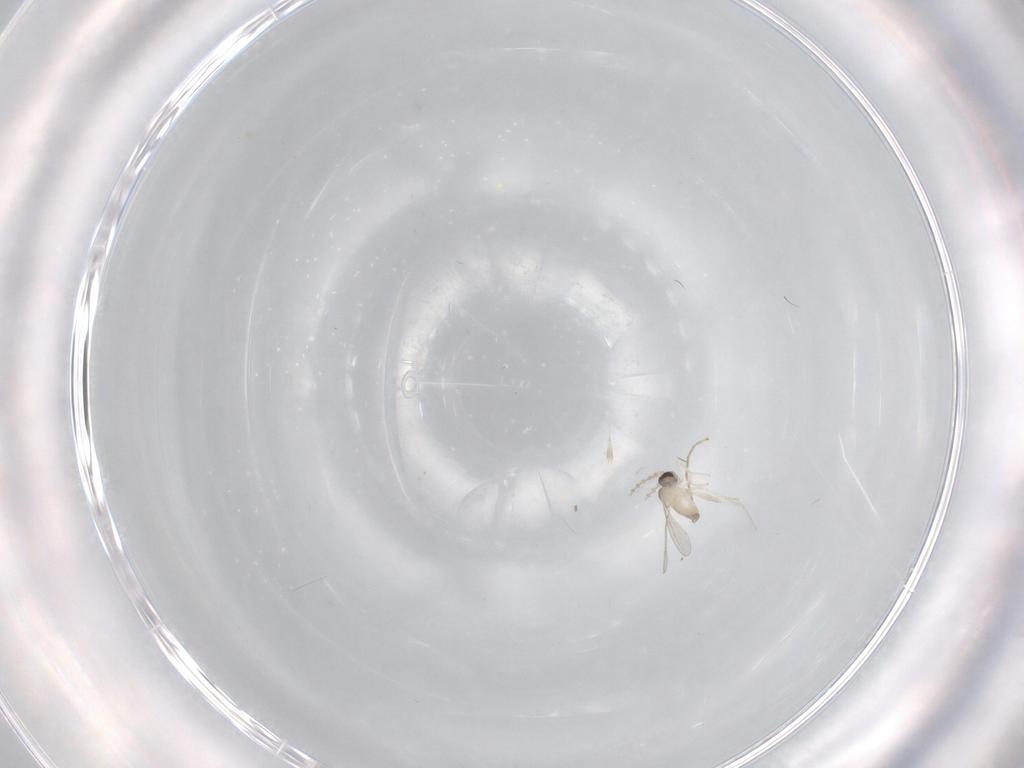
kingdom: Animalia
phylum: Arthropoda
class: Insecta
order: Diptera
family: Cecidomyiidae
